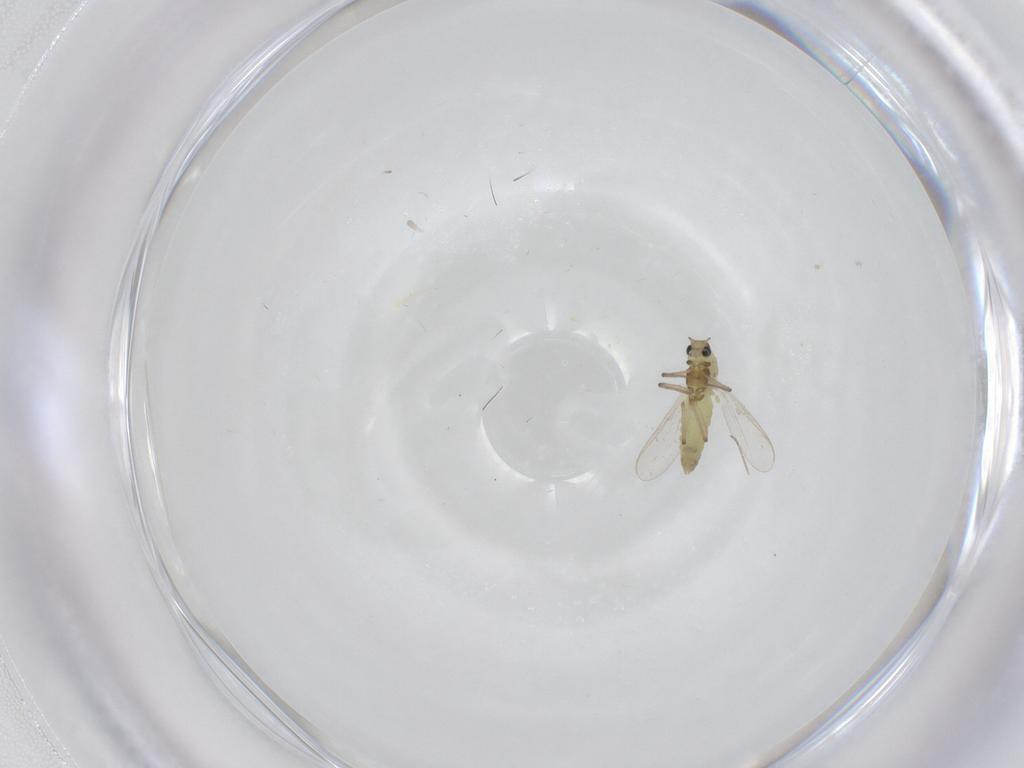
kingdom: Animalia
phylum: Arthropoda
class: Insecta
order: Diptera
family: Chironomidae
